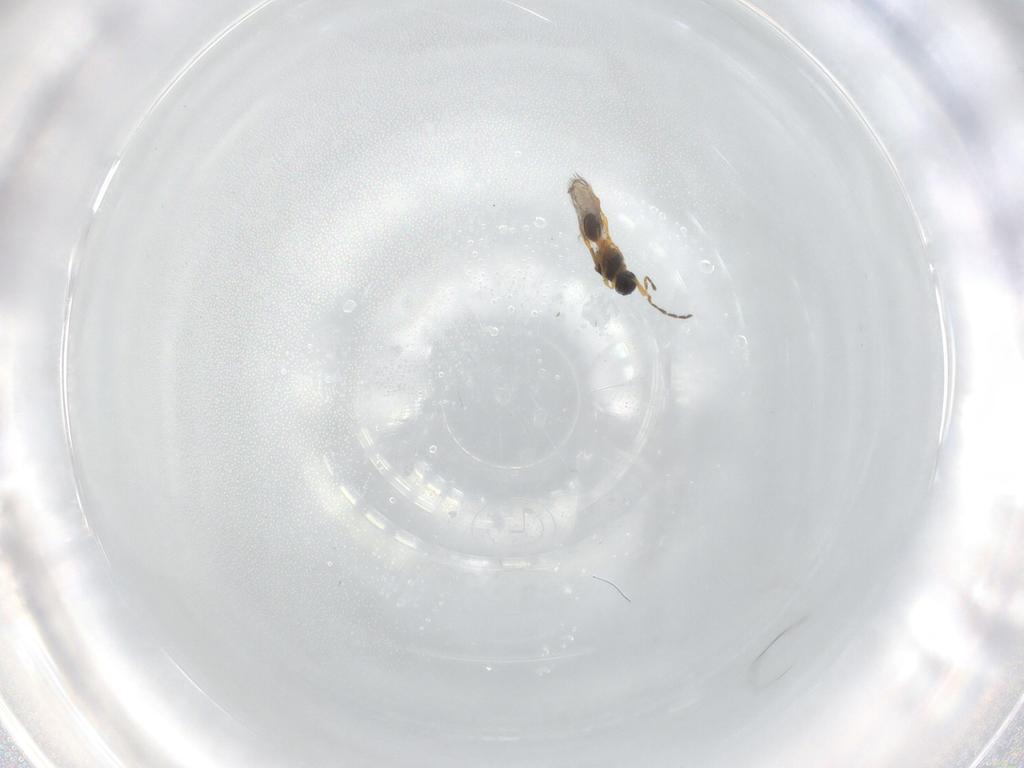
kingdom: Animalia
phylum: Arthropoda
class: Insecta
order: Hymenoptera
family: Platygastridae
